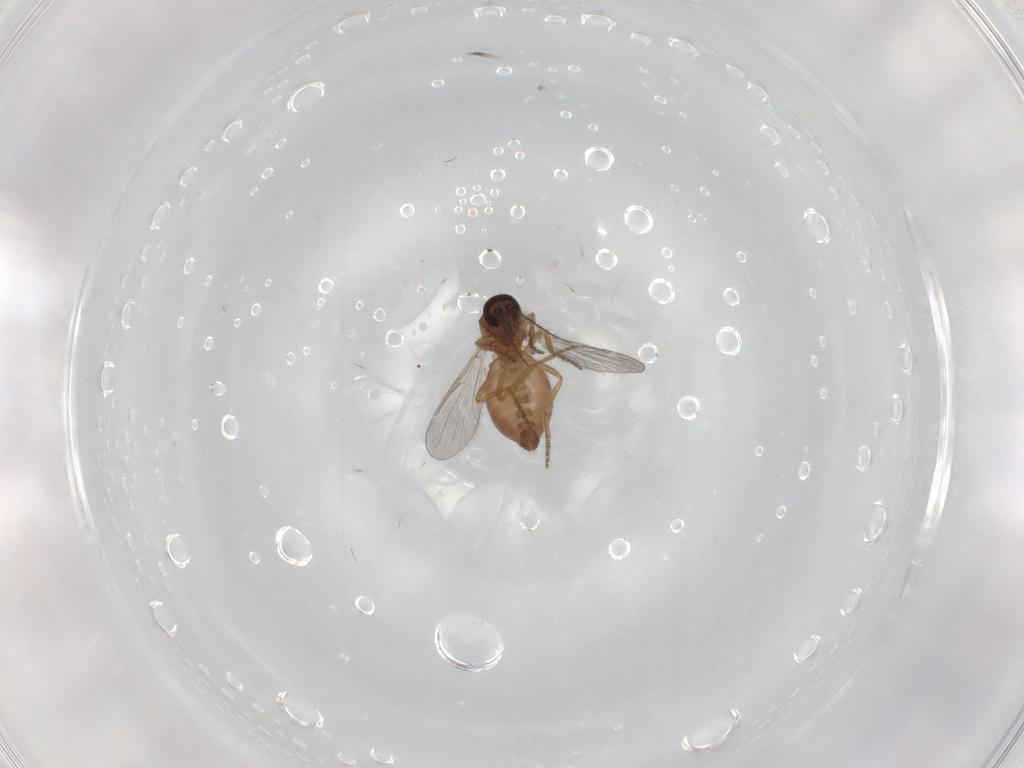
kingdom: Animalia
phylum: Arthropoda
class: Insecta
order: Diptera
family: Ceratopogonidae
